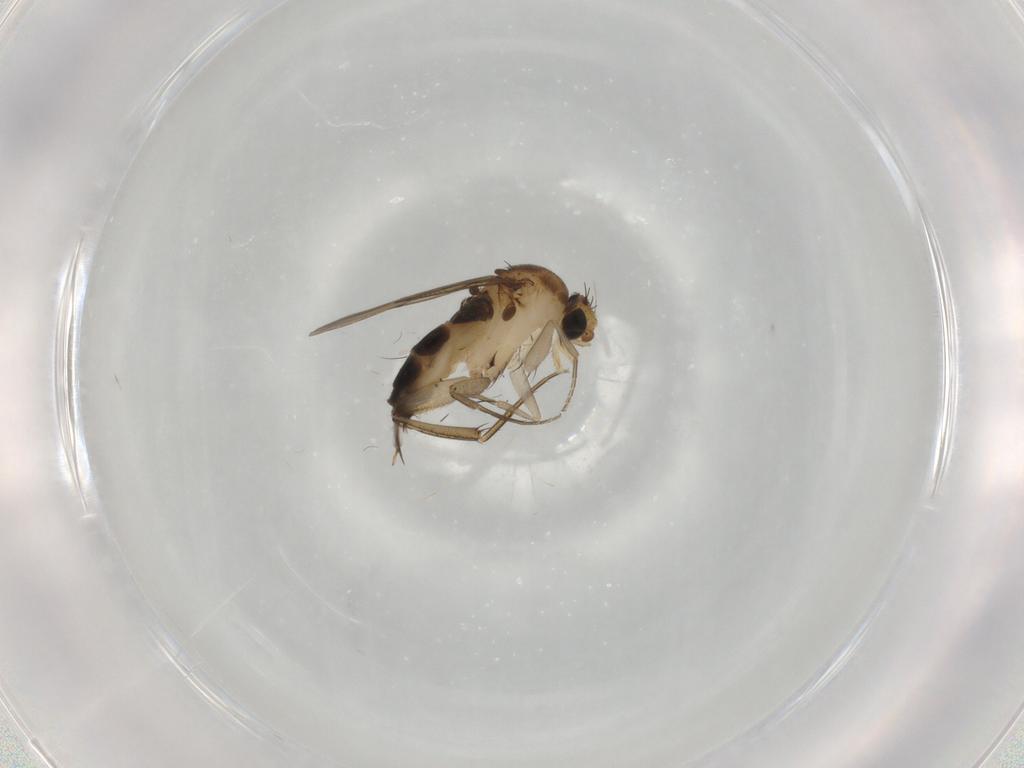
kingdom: Animalia
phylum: Arthropoda
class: Insecta
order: Diptera
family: Phoridae
